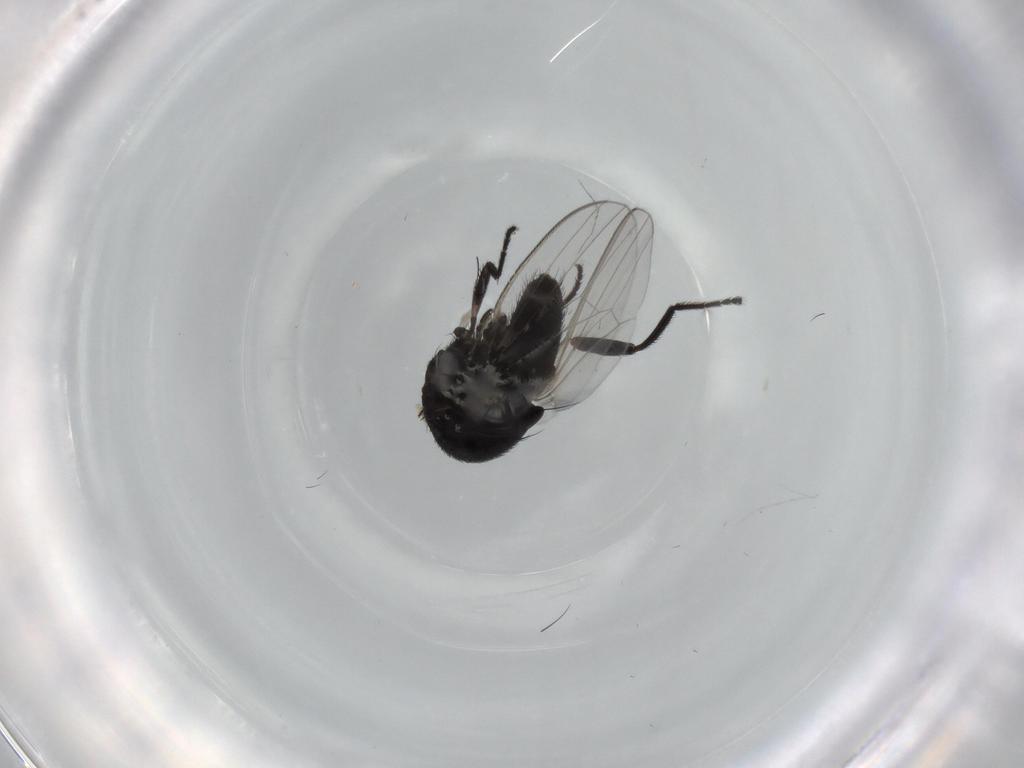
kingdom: Animalia
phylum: Arthropoda
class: Insecta
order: Diptera
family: Milichiidae
